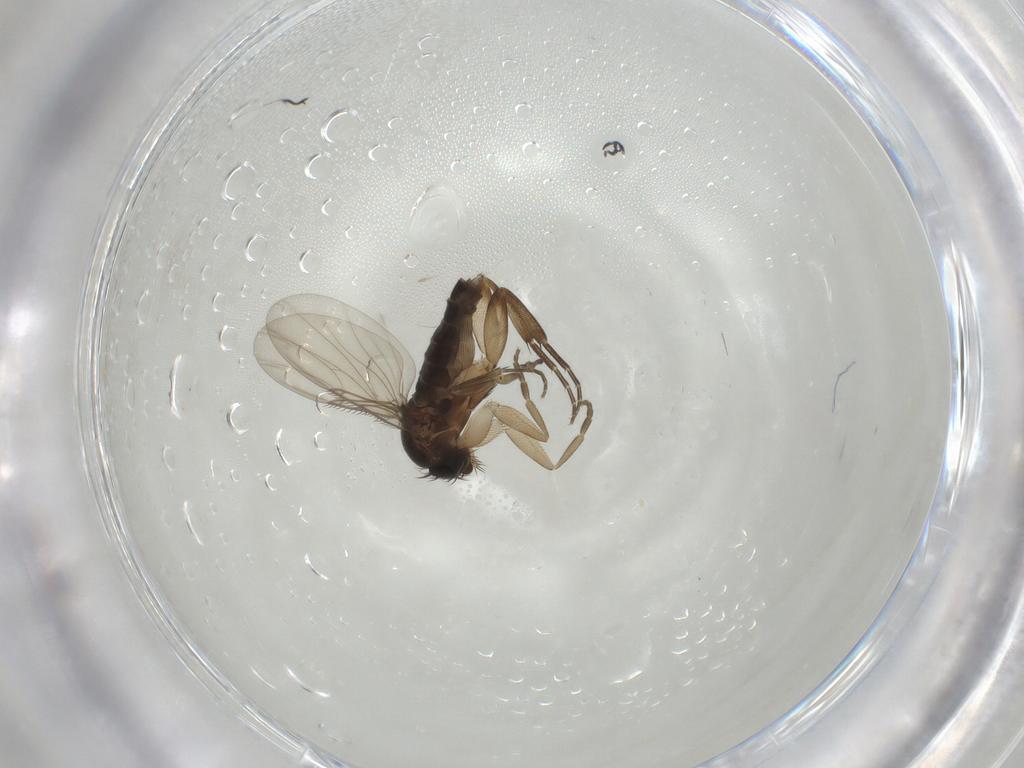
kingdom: Animalia
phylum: Arthropoda
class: Insecta
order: Diptera
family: Phoridae
